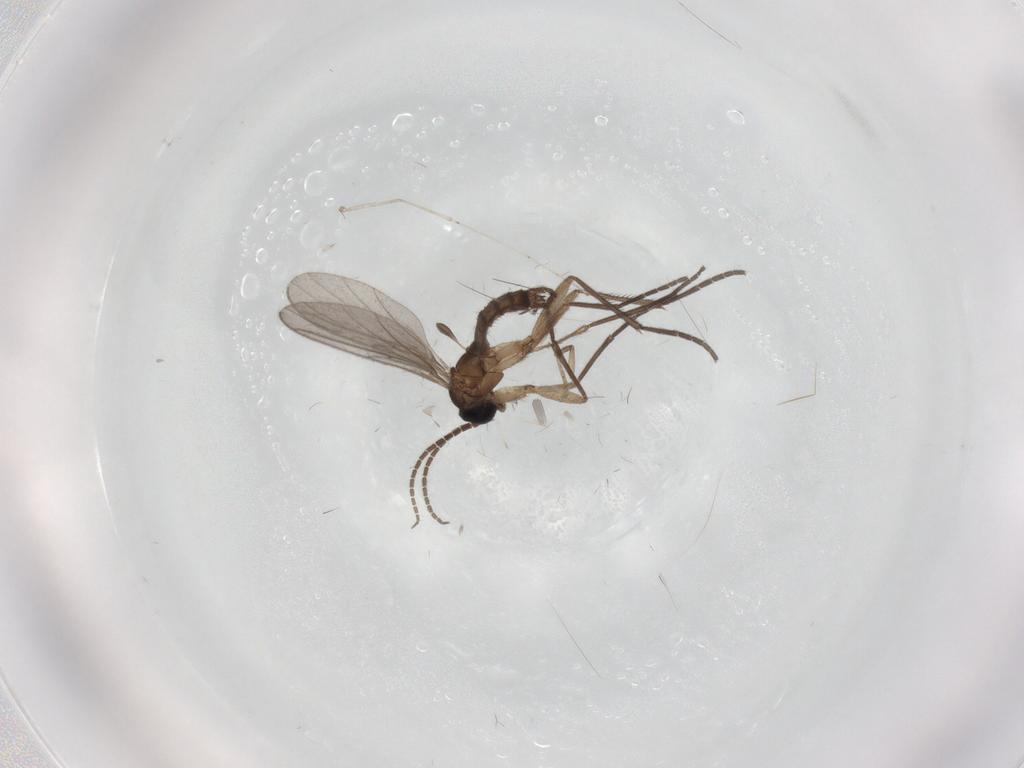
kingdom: Animalia
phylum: Arthropoda
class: Insecta
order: Diptera
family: Sciaridae
